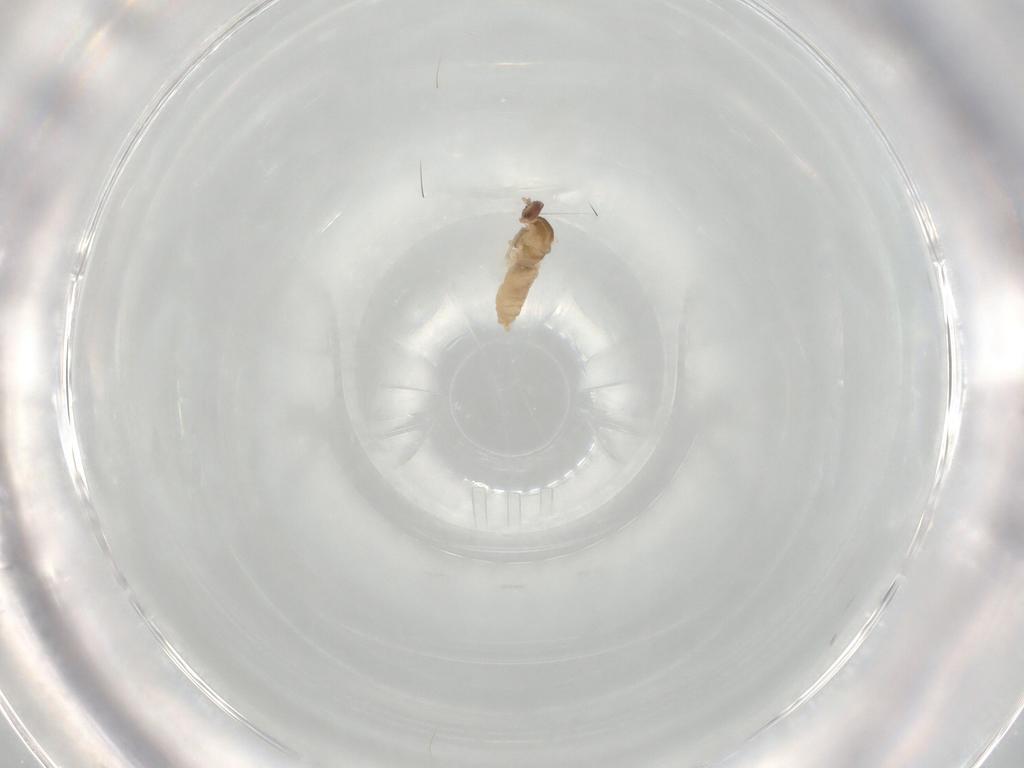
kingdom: Animalia
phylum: Arthropoda
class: Insecta
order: Diptera
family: Cecidomyiidae
